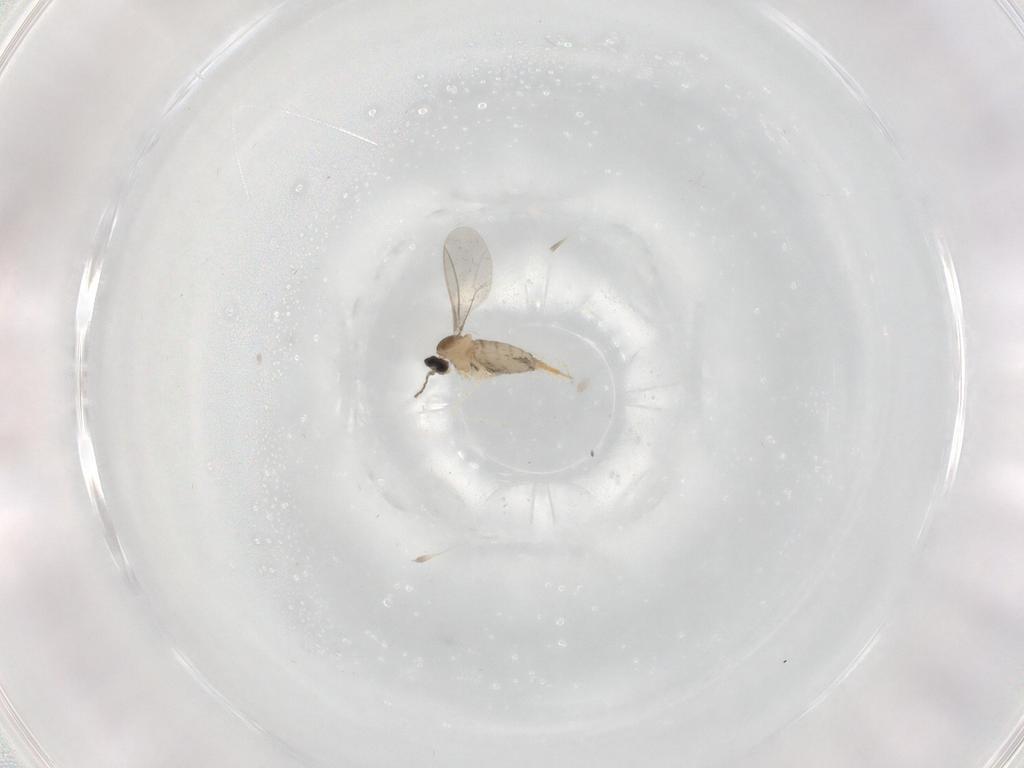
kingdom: Animalia
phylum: Arthropoda
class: Insecta
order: Diptera
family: Cecidomyiidae
